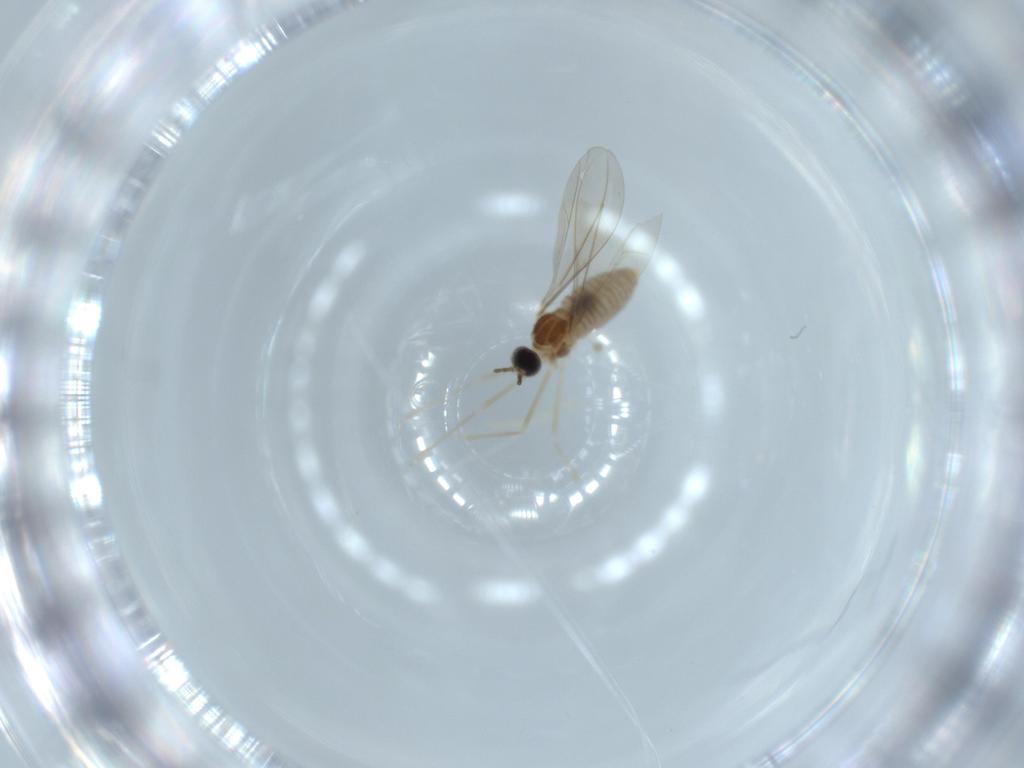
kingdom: Animalia
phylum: Arthropoda
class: Insecta
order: Diptera
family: Cecidomyiidae
